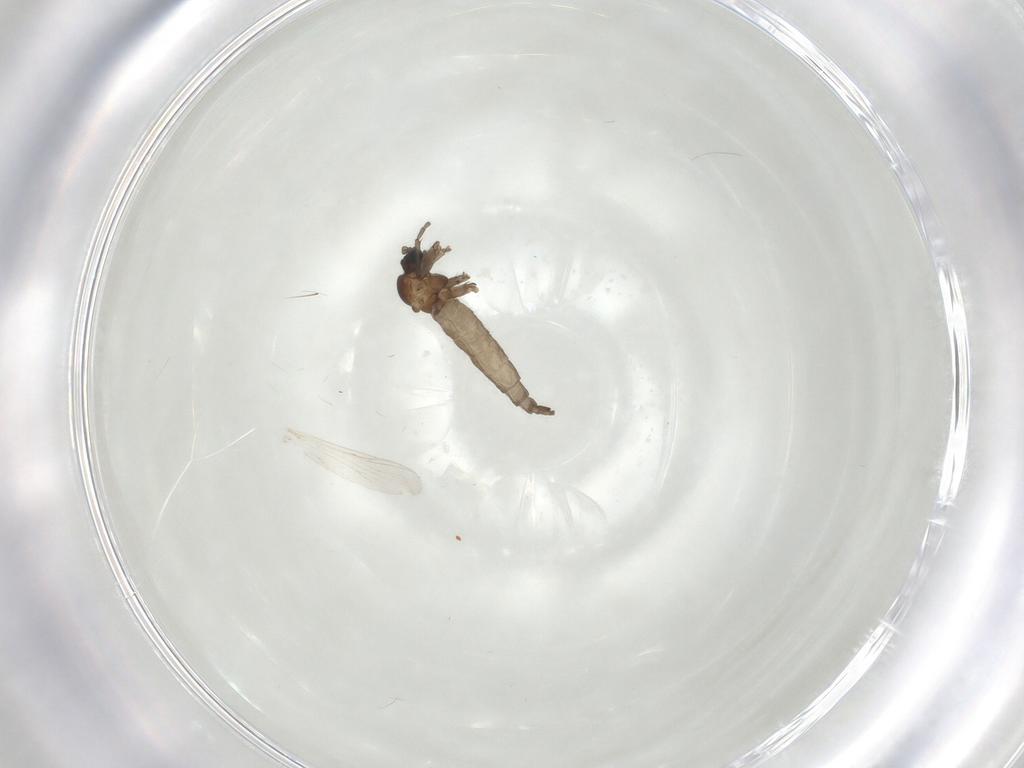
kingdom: Animalia
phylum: Arthropoda
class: Insecta
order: Diptera
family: Sciaridae
